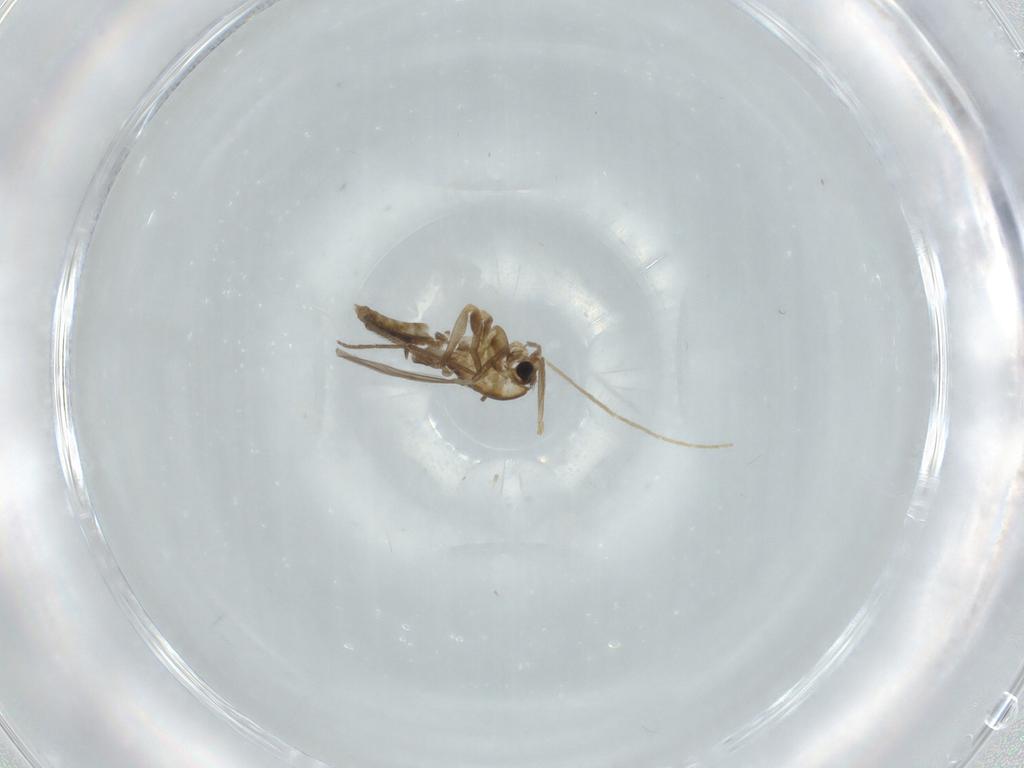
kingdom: Animalia
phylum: Arthropoda
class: Insecta
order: Diptera
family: Chironomidae
